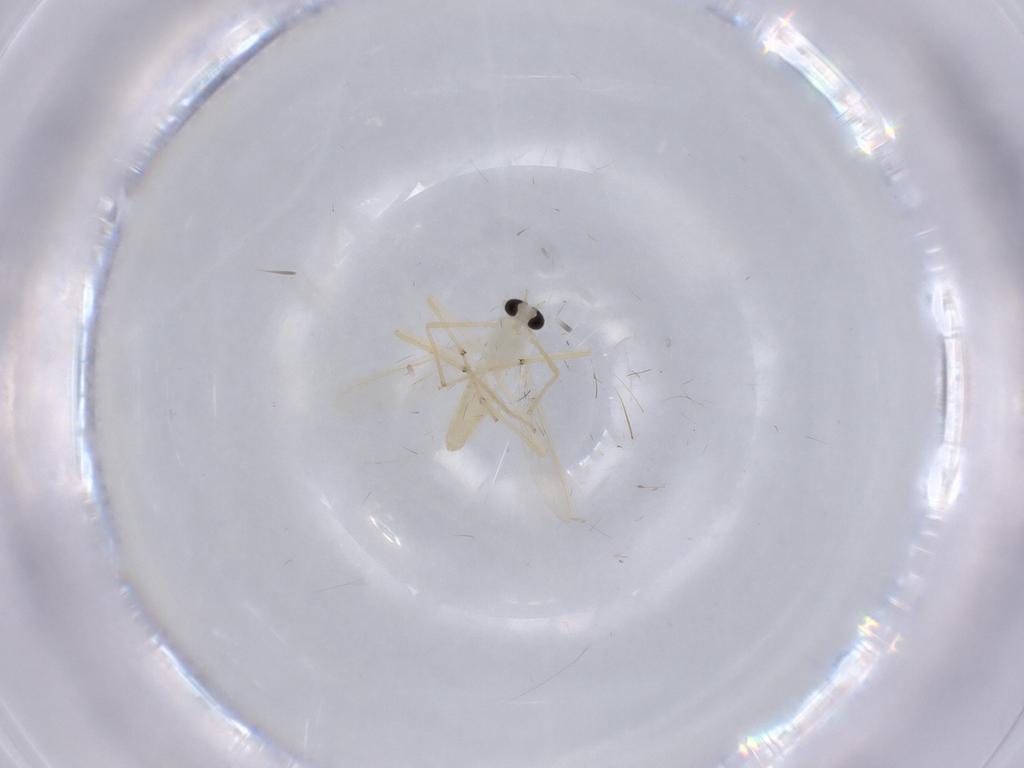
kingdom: Animalia
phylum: Arthropoda
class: Insecta
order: Diptera
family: Chironomidae
